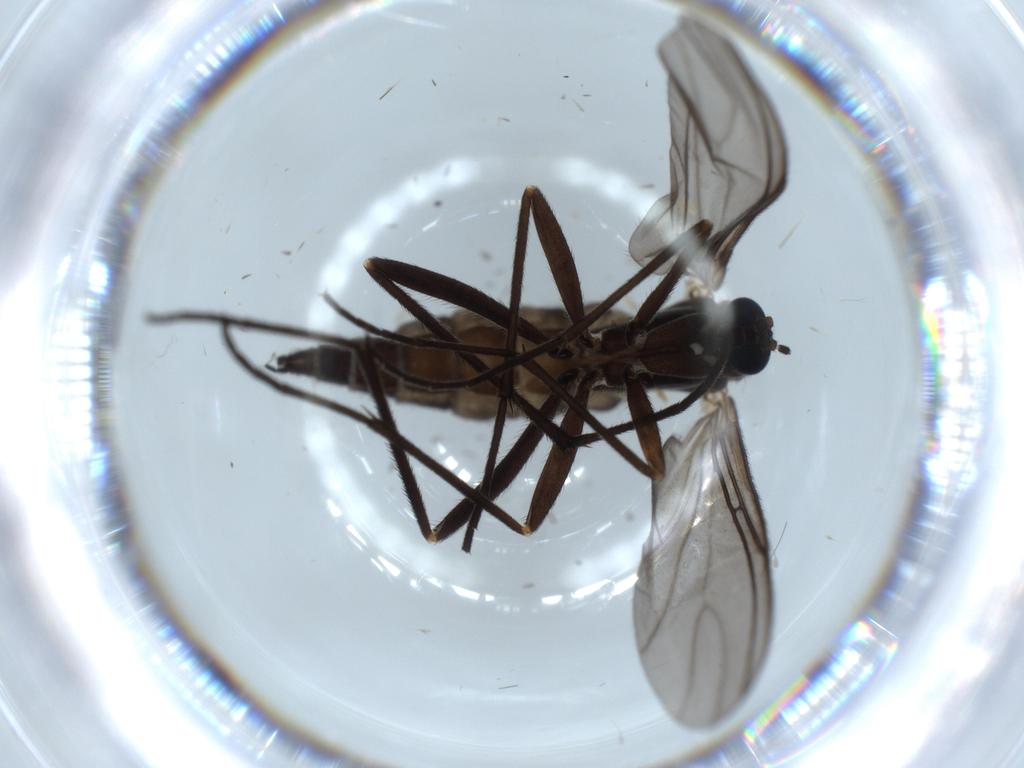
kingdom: Animalia
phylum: Arthropoda
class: Insecta
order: Diptera
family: Sciaridae
